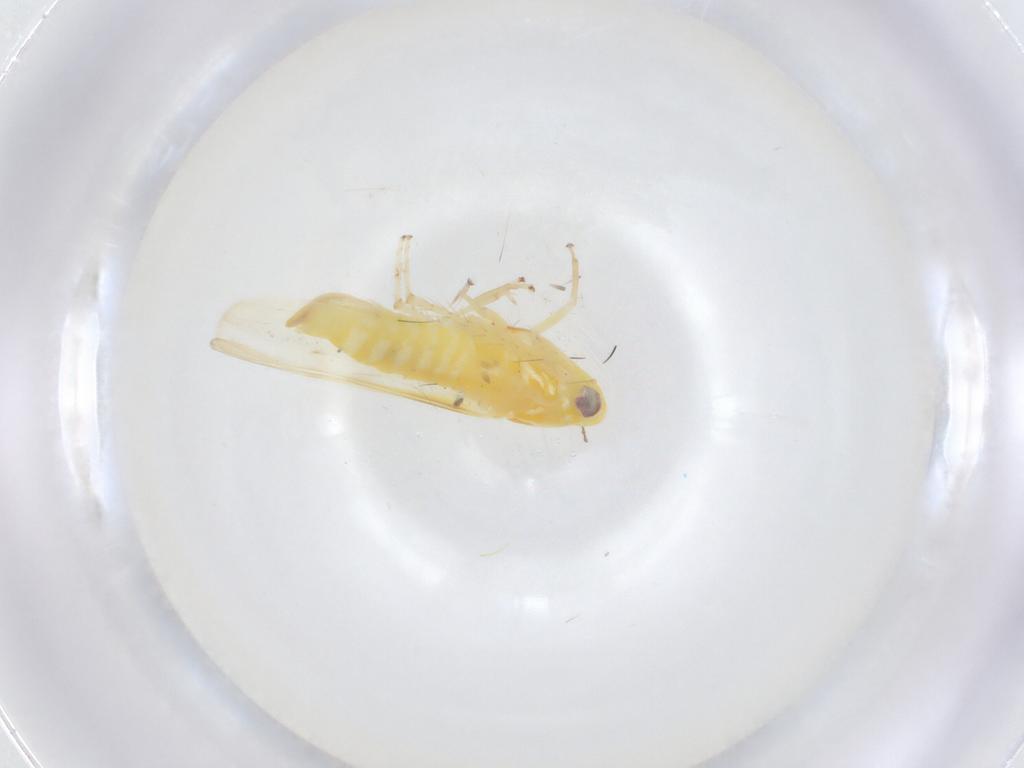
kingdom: Animalia
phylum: Arthropoda
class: Insecta
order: Hemiptera
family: Cicadellidae
